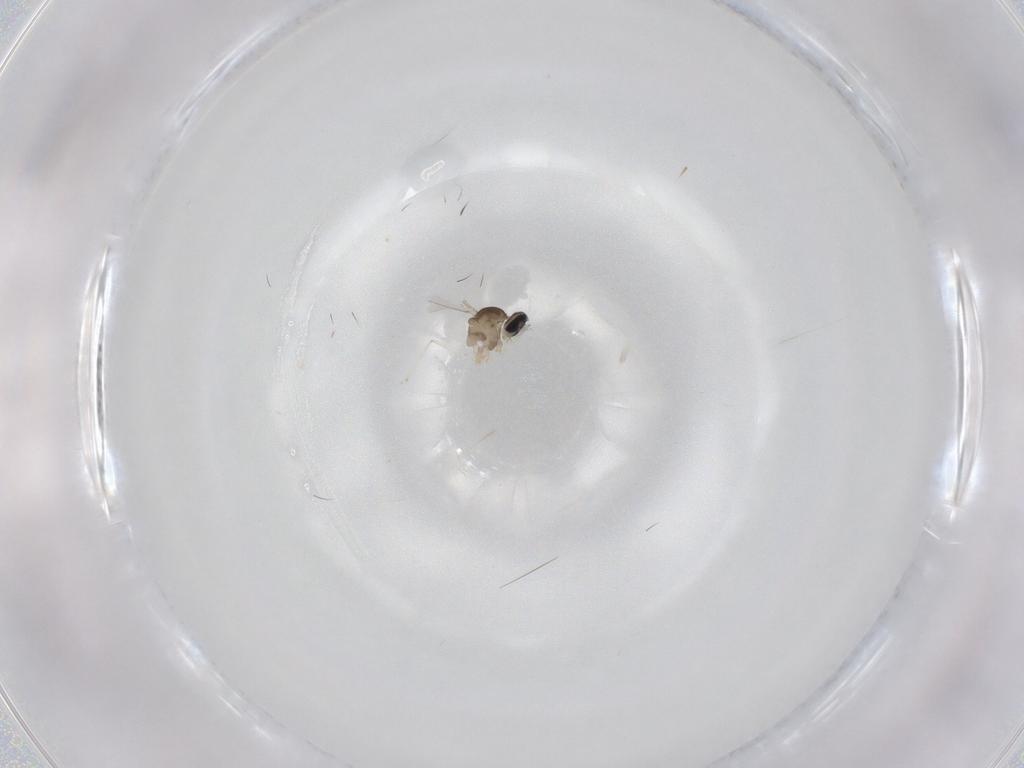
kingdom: Animalia
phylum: Arthropoda
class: Insecta
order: Diptera
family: Cecidomyiidae
